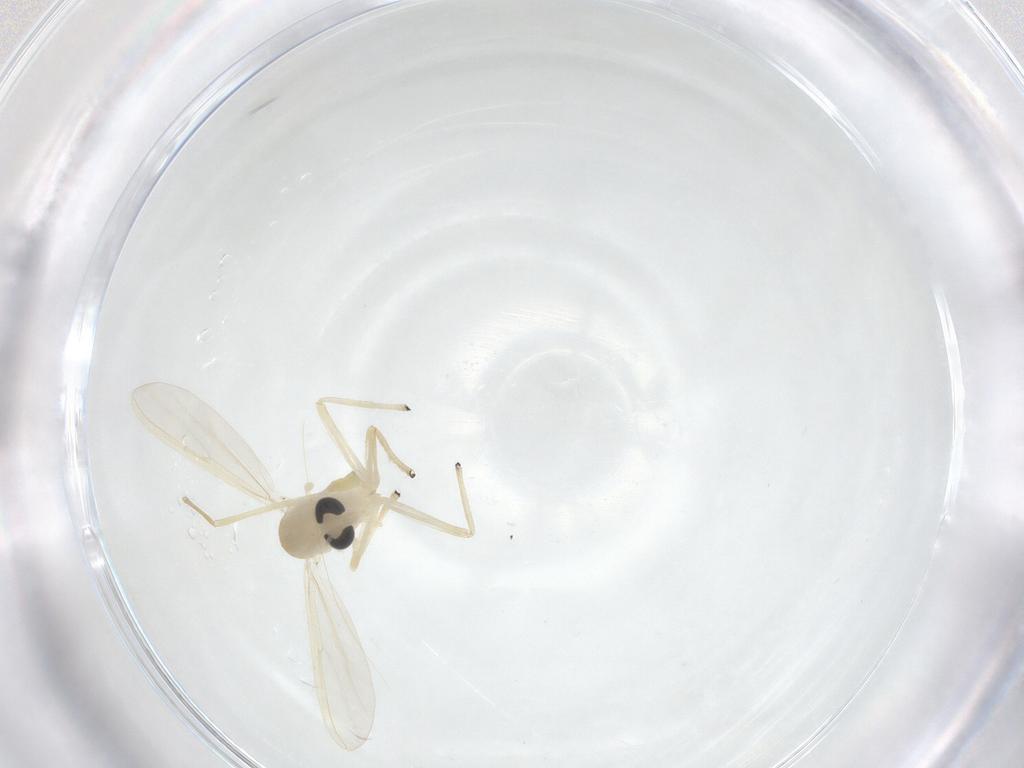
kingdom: Animalia
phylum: Arthropoda
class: Insecta
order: Diptera
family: Chironomidae
